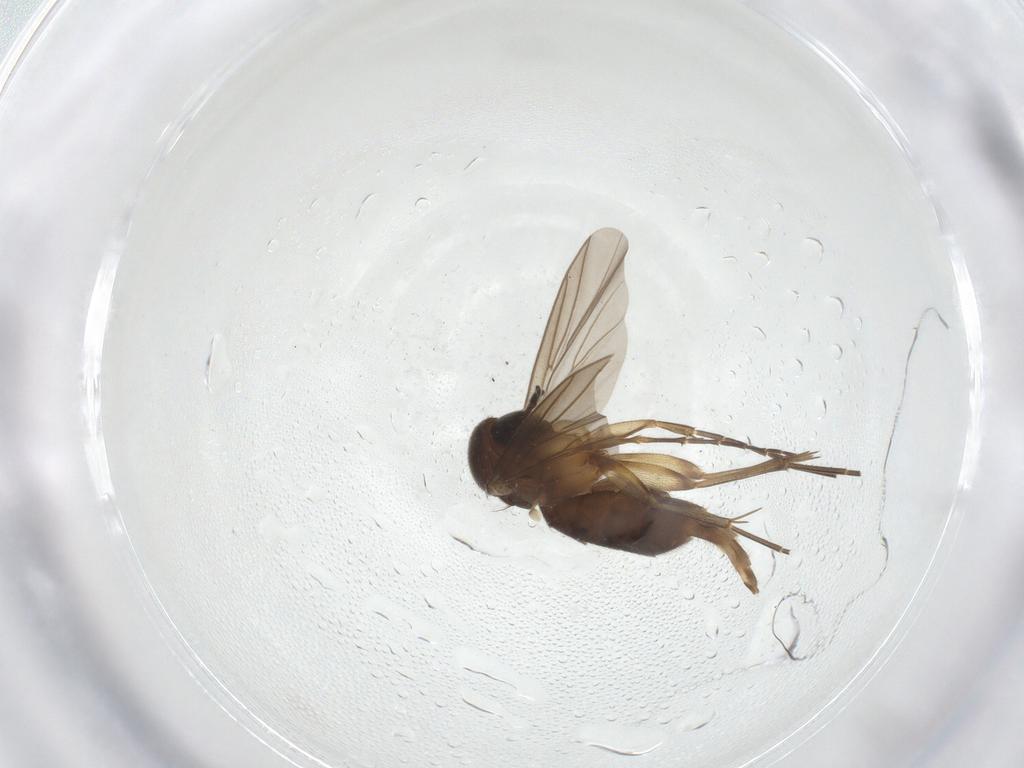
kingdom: Animalia
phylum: Arthropoda
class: Insecta
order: Diptera
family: Mycetophilidae
